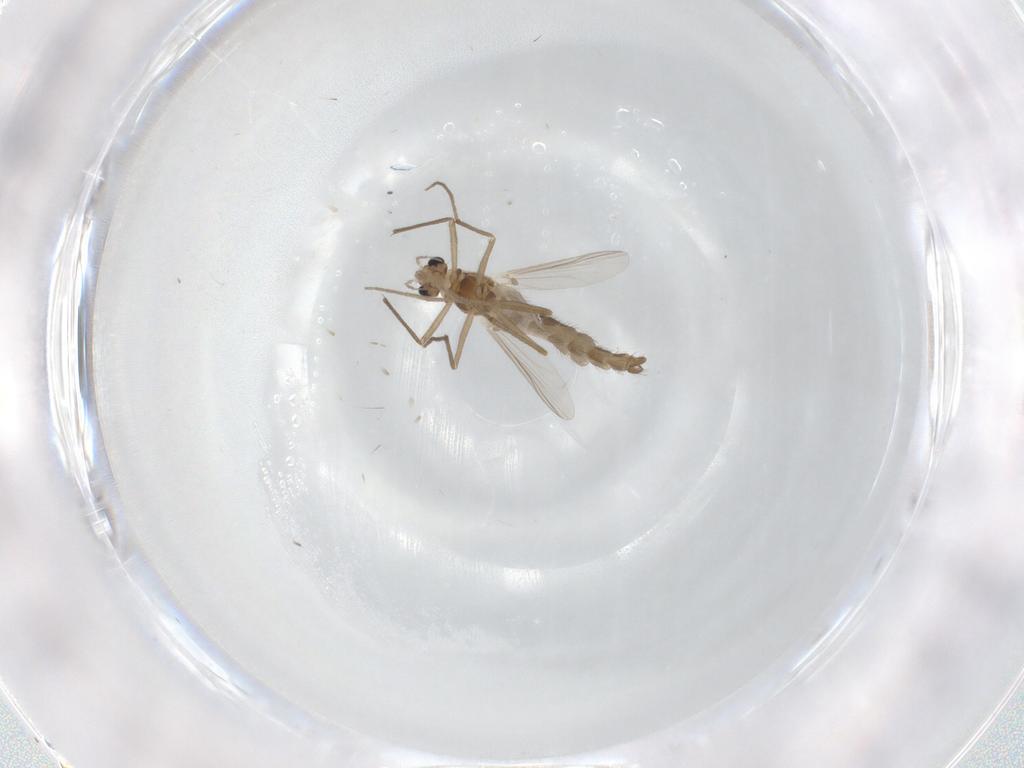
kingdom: Animalia
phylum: Arthropoda
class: Insecta
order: Diptera
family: Chironomidae
